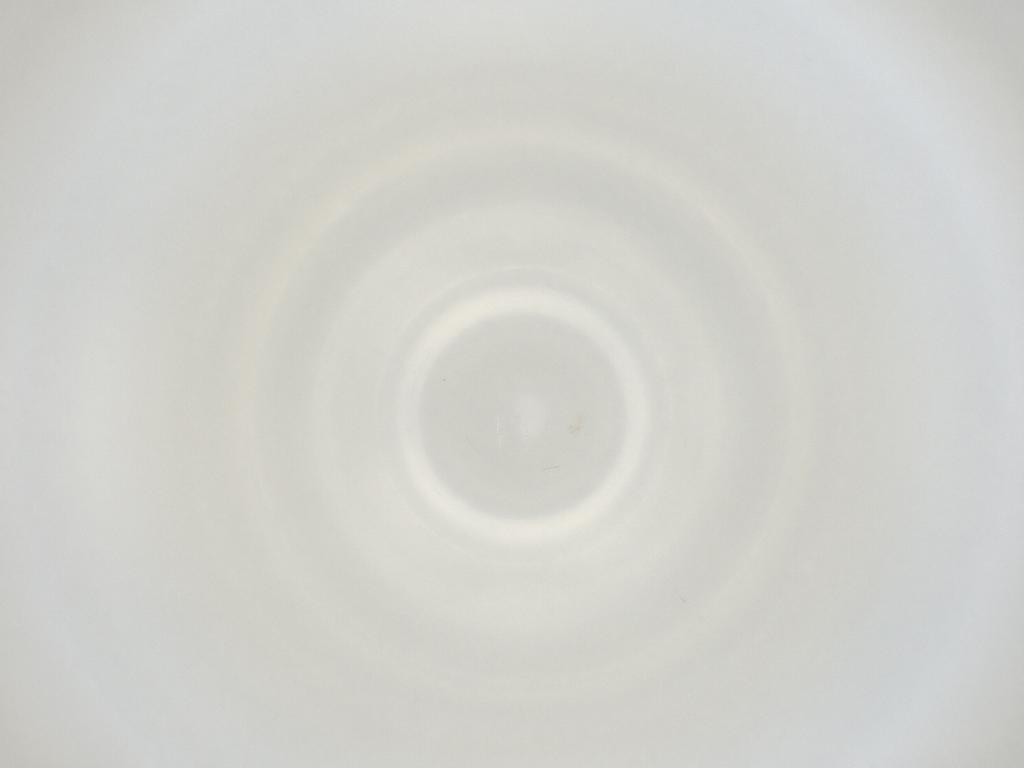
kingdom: Animalia
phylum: Arthropoda
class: Insecta
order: Diptera
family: Cecidomyiidae
